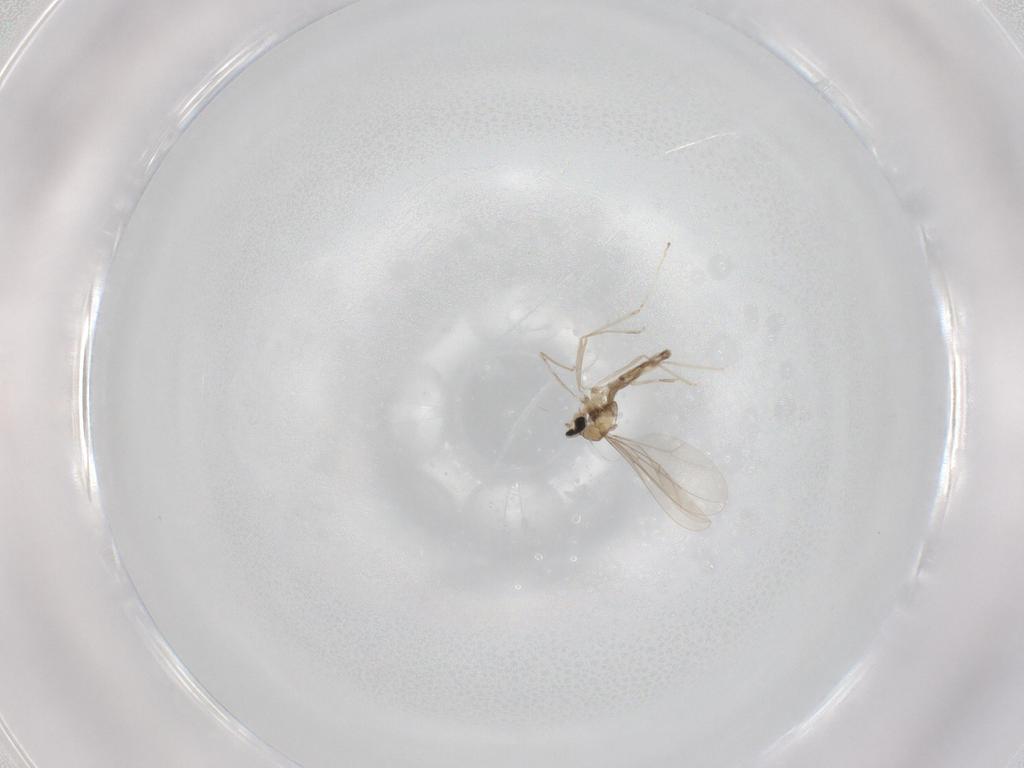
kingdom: Animalia
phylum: Arthropoda
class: Insecta
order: Diptera
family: Cecidomyiidae
